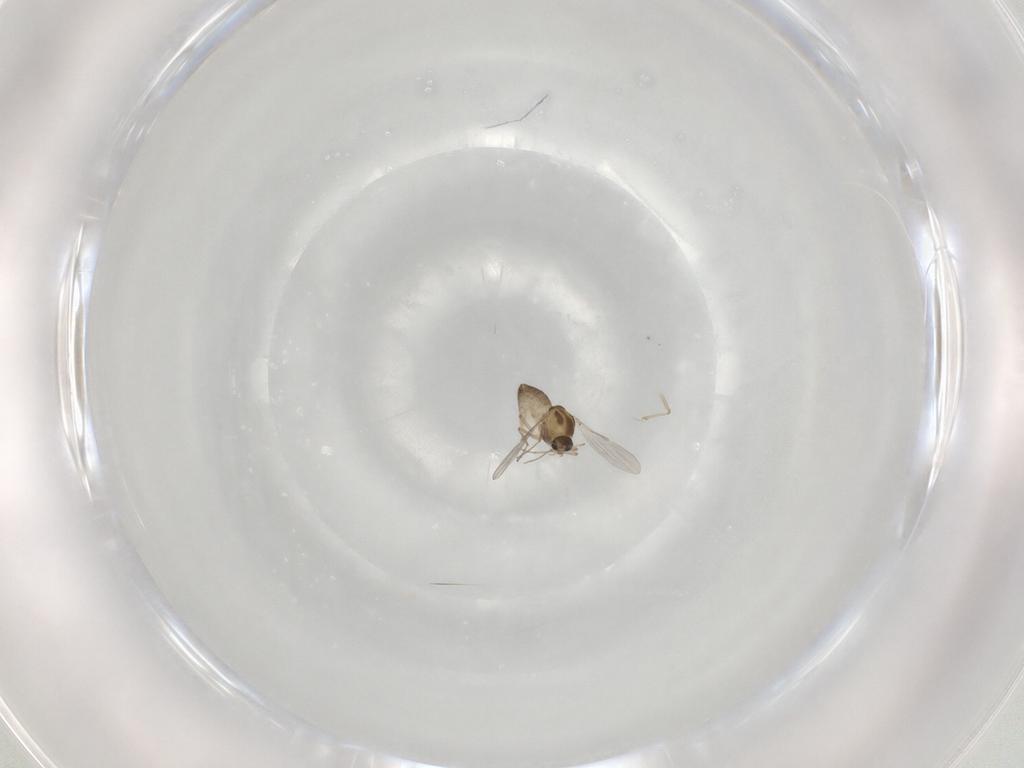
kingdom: Animalia
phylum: Arthropoda
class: Insecta
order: Diptera
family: Chironomidae
